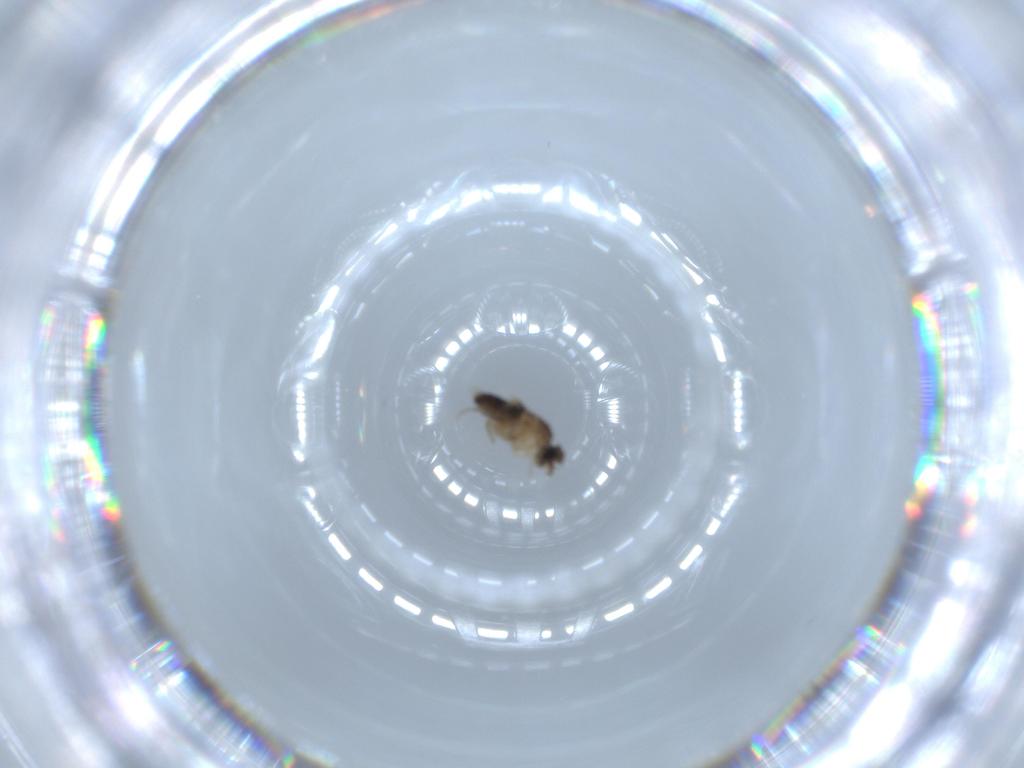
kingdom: Animalia
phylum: Arthropoda
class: Insecta
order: Diptera
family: Phoridae
